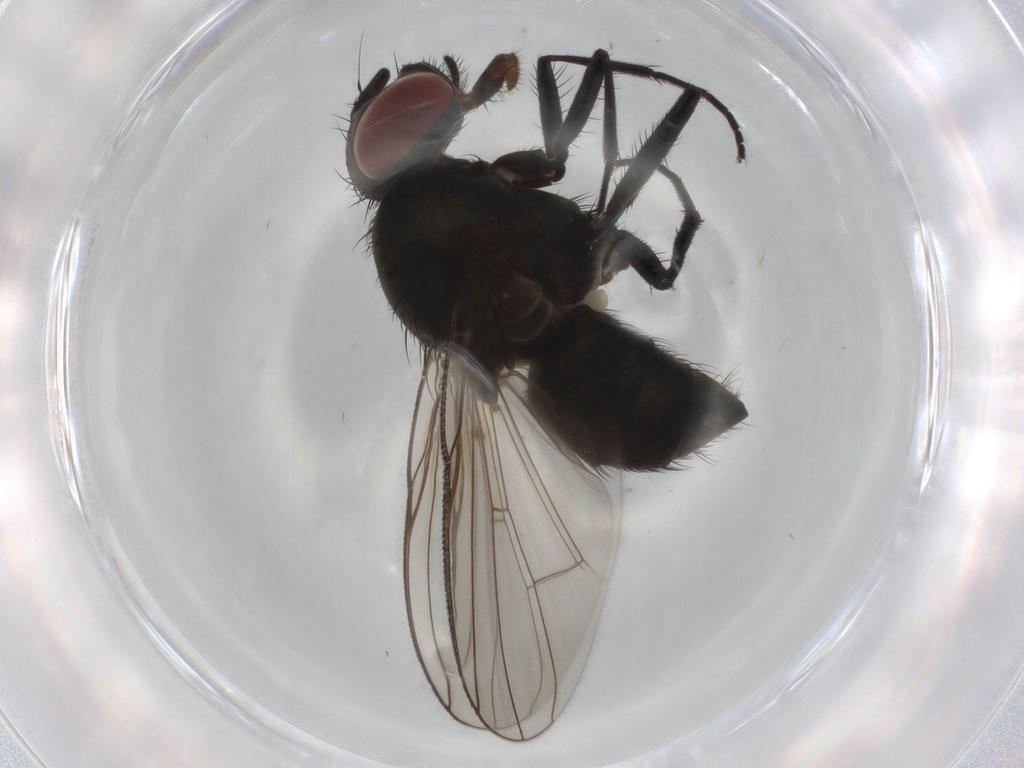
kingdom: Animalia
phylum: Arthropoda
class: Insecta
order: Diptera
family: Muscidae
